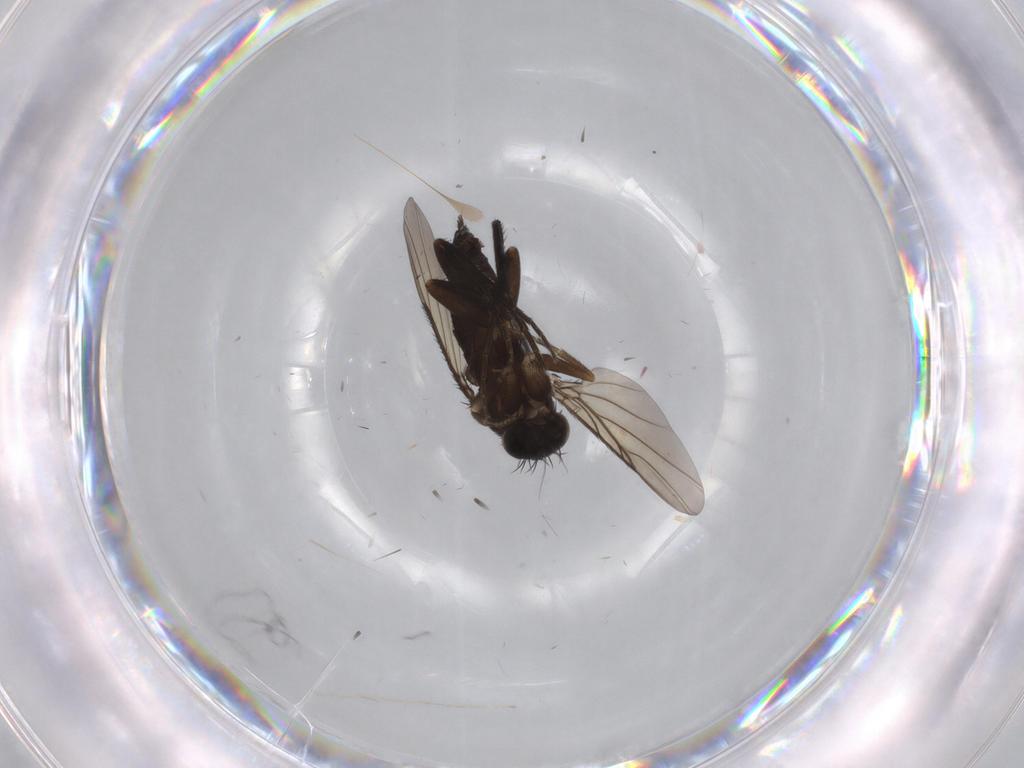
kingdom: Animalia
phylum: Arthropoda
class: Insecta
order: Diptera
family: Phoridae
